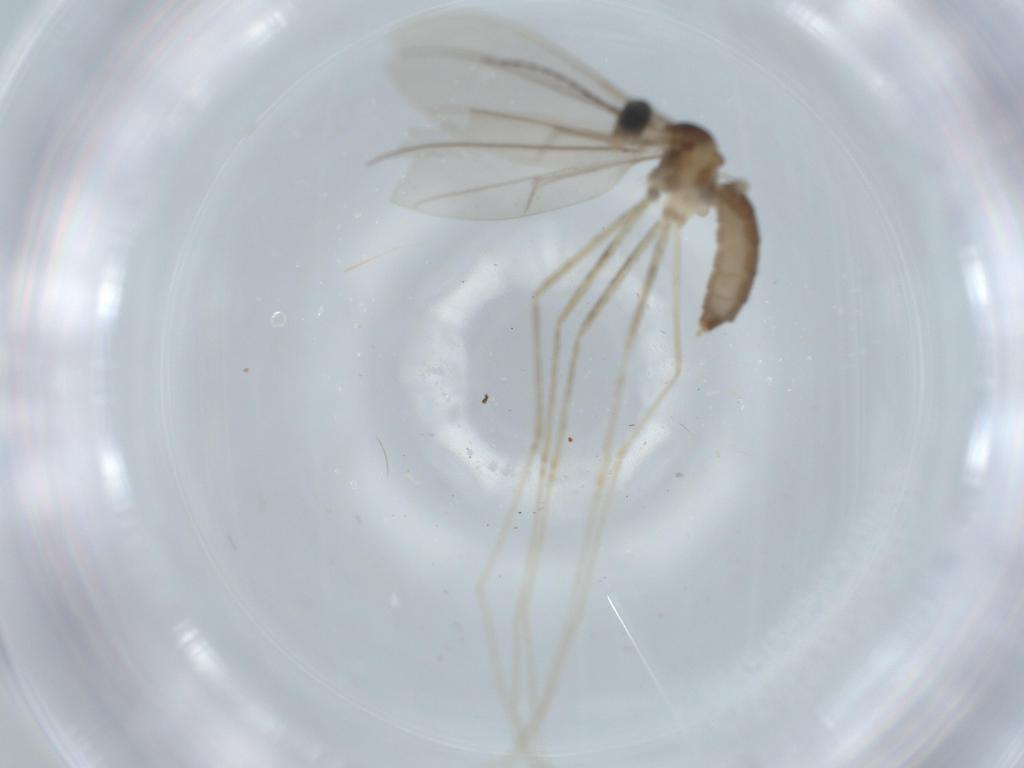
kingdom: Animalia
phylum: Arthropoda
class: Insecta
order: Diptera
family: Cecidomyiidae
